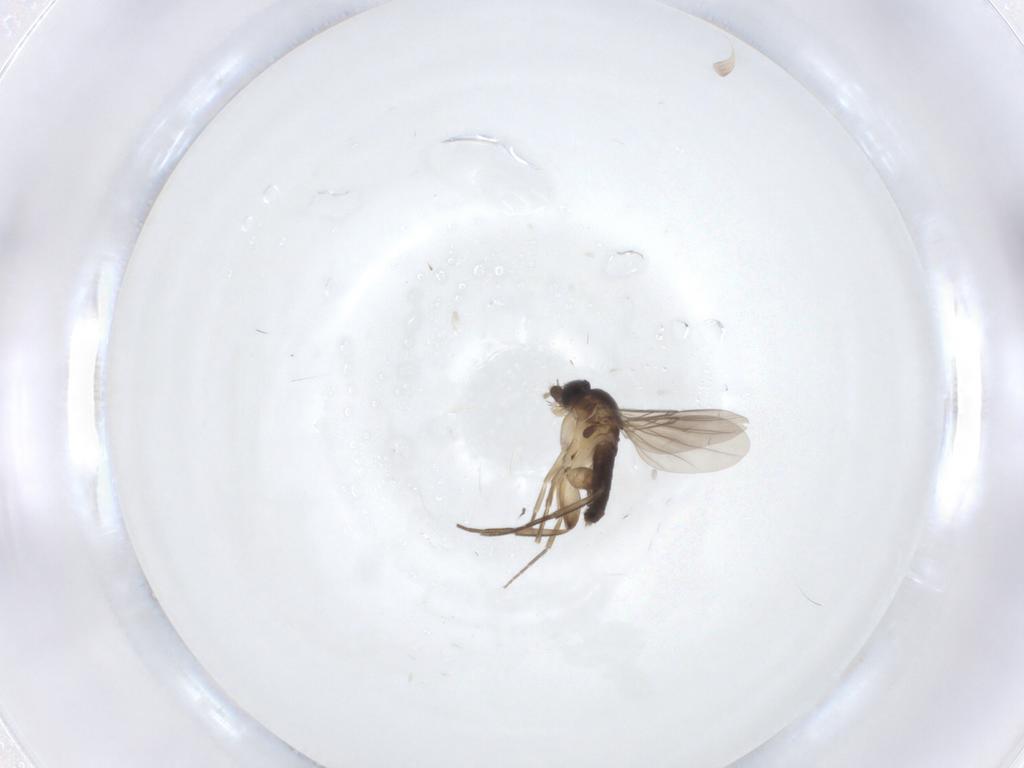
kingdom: Animalia
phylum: Arthropoda
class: Insecta
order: Diptera
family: Phoridae
